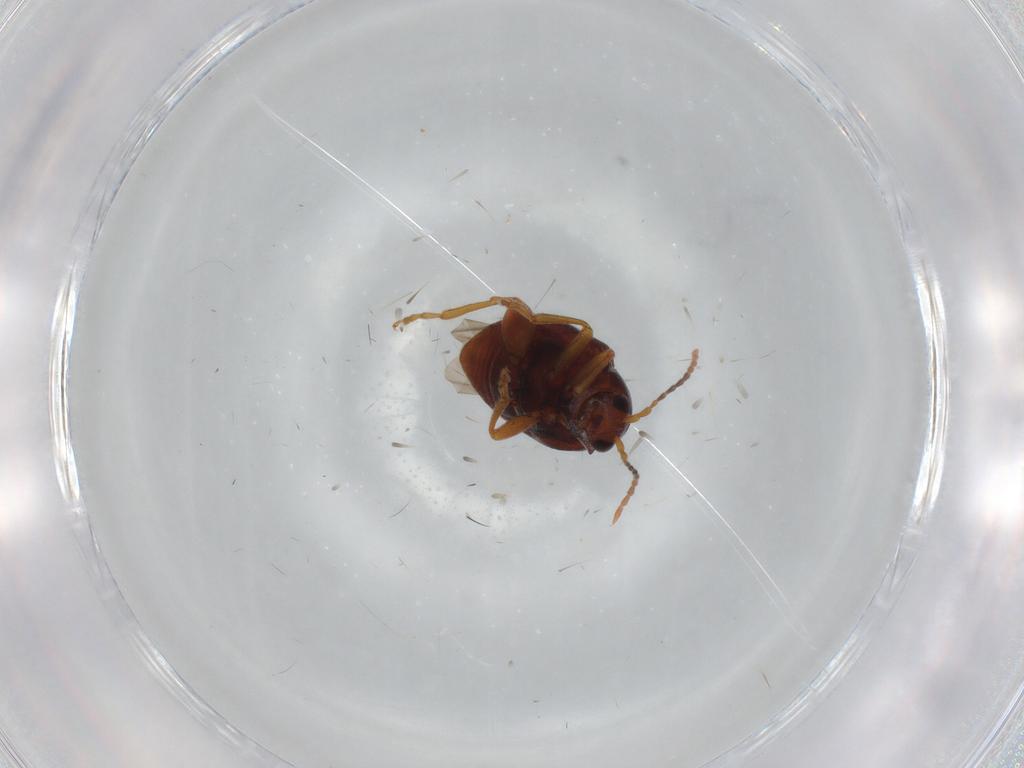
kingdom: Animalia
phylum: Arthropoda
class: Insecta
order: Coleoptera
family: Chrysomelidae
